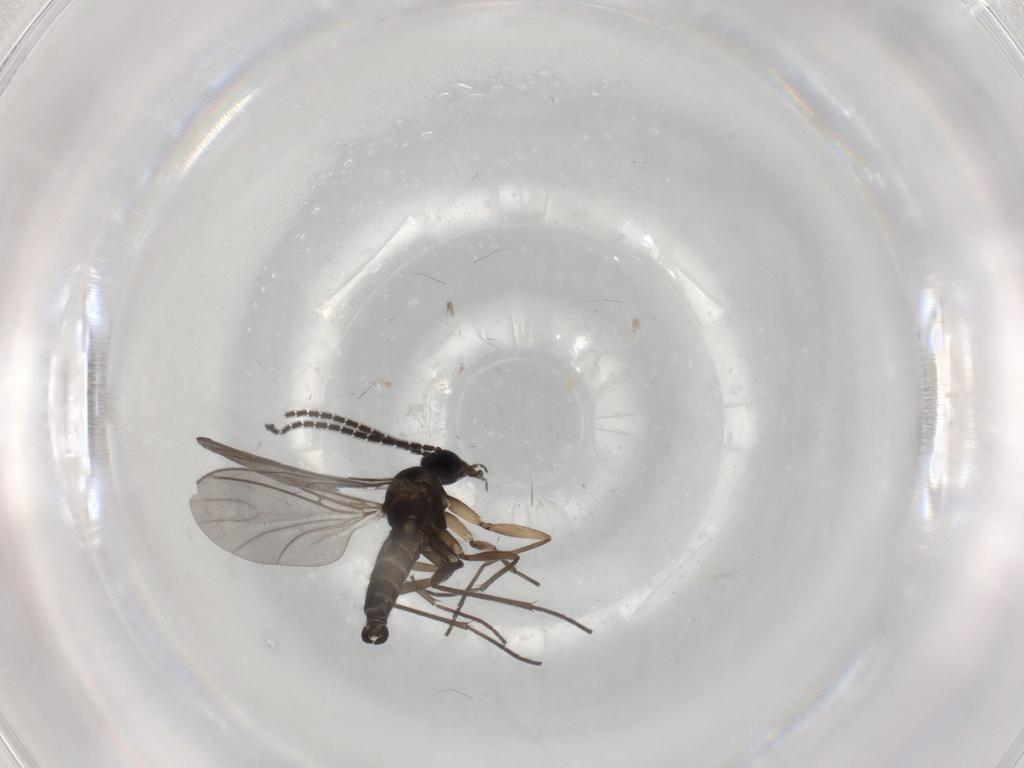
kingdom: Animalia
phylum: Arthropoda
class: Insecta
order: Diptera
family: Sciaridae
